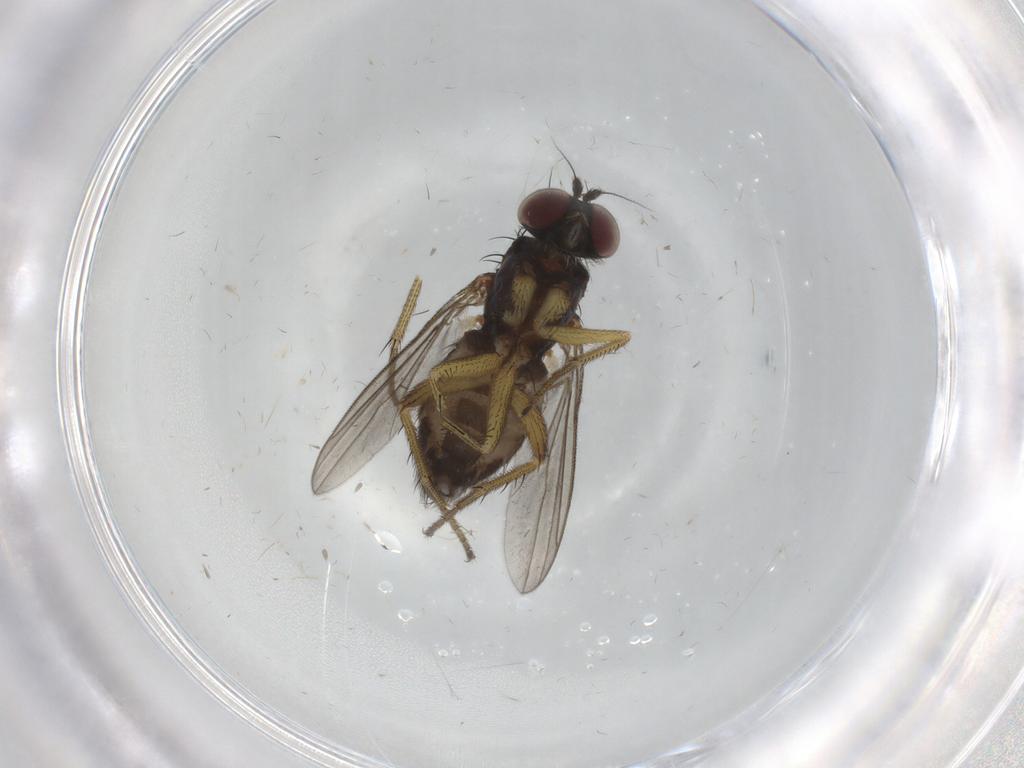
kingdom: Animalia
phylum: Arthropoda
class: Insecta
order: Diptera
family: Dolichopodidae
